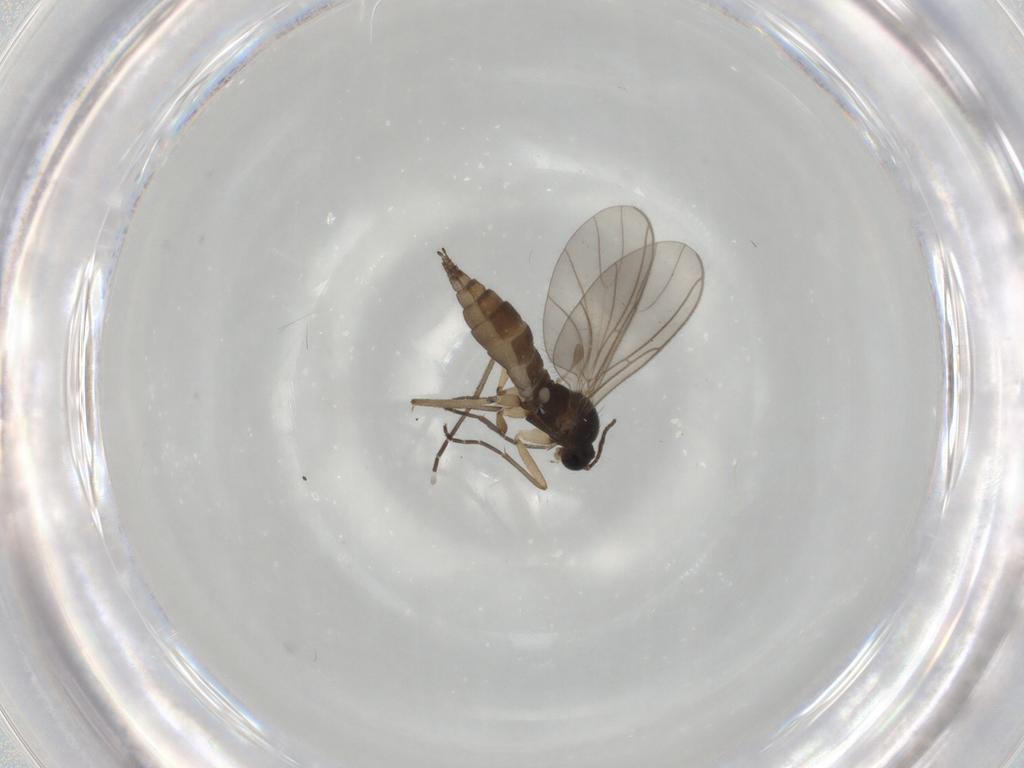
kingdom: Animalia
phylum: Arthropoda
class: Insecta
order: Diptera
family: Sciaridae
